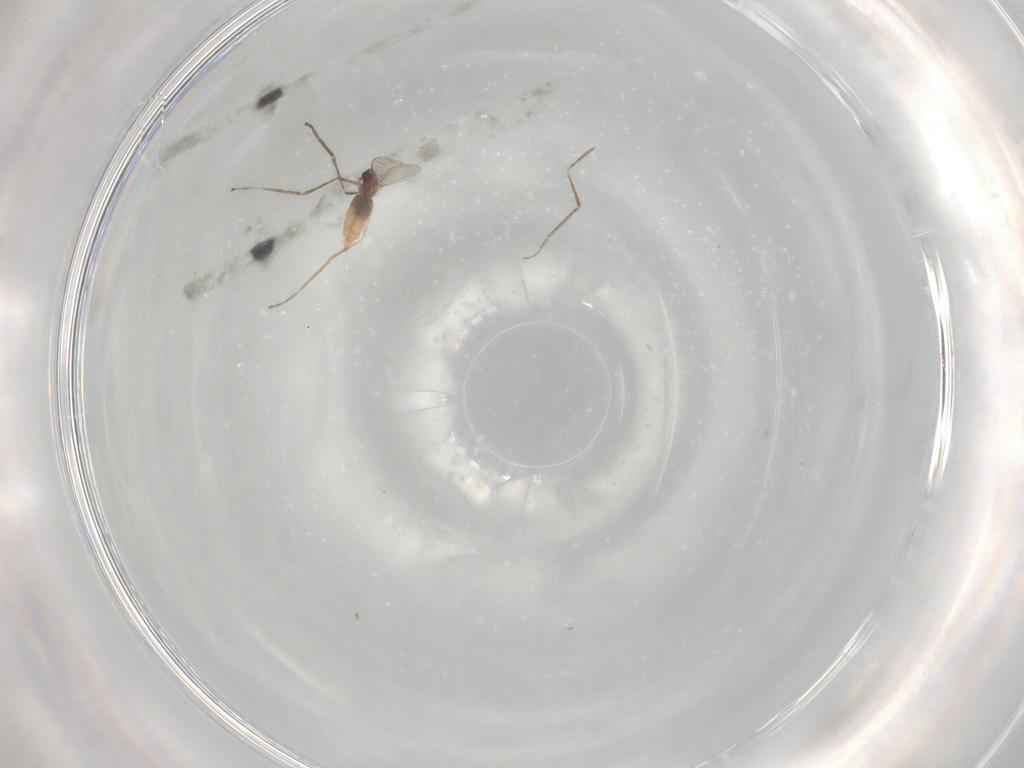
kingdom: Animalia
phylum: Arthropoda
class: Insecta
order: Diptera
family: Cecidomyiidae
